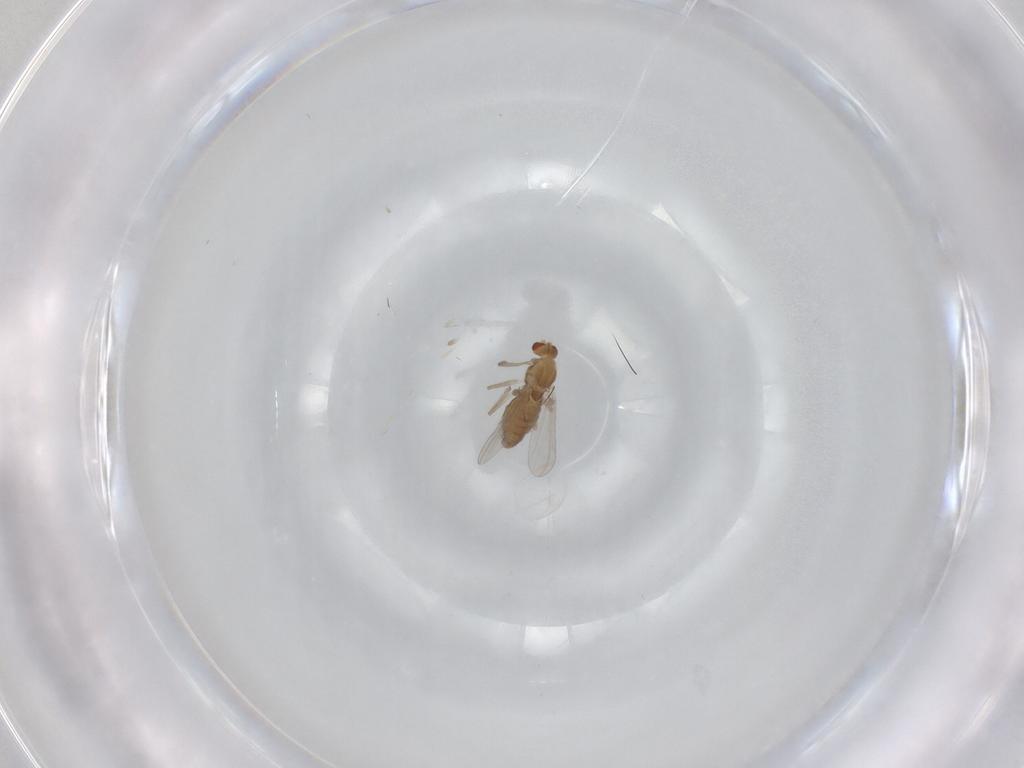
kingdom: Animalia
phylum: Arthropoda
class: Insecta
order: Diptera
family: Chironomidae
